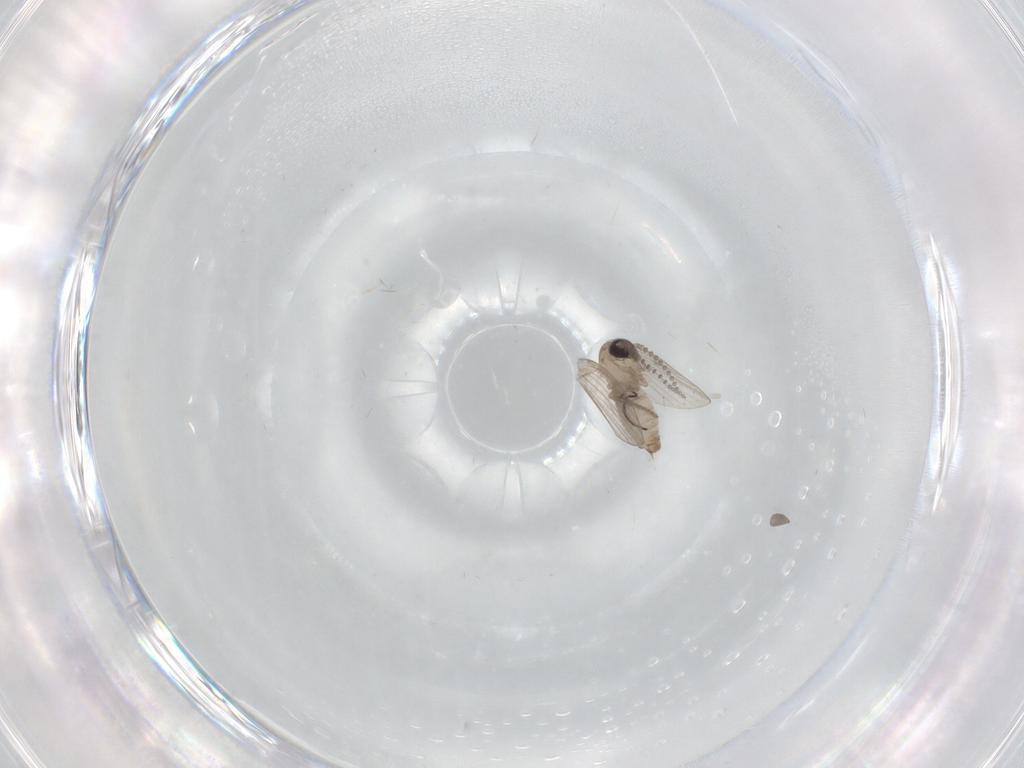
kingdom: Animalia
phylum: Arthropoda
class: Insecta
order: Diptera
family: Psychodidae
